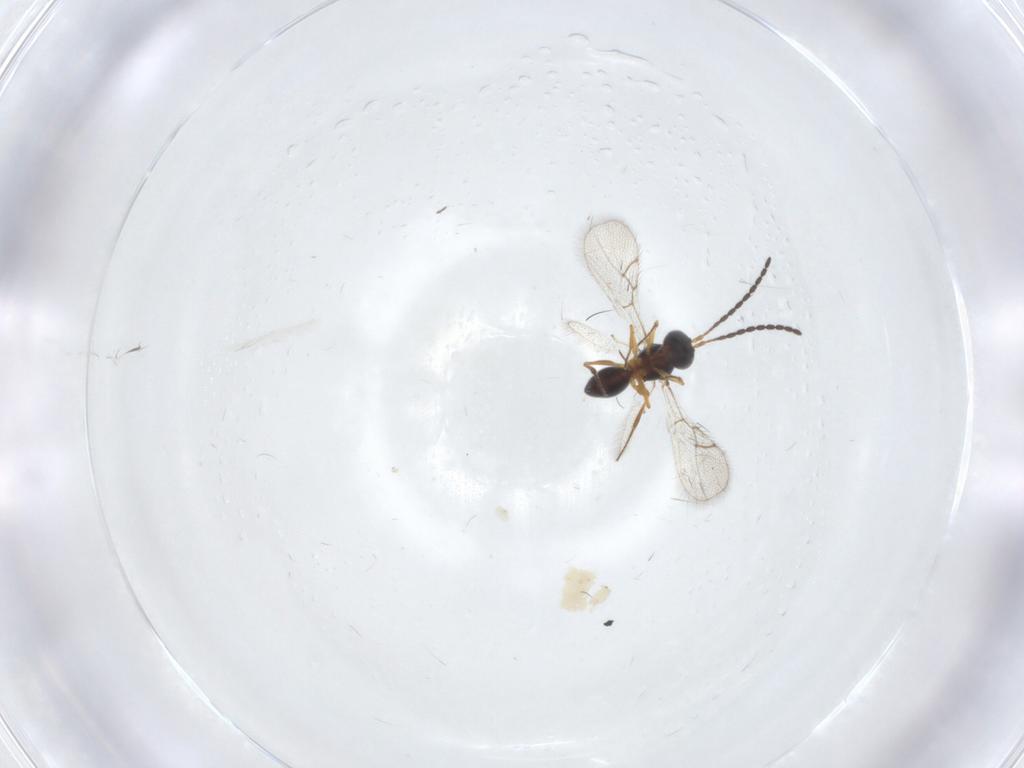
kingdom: Animalia
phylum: Arthropoda
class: Insecta
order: Hymenoptera
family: Figitidae
